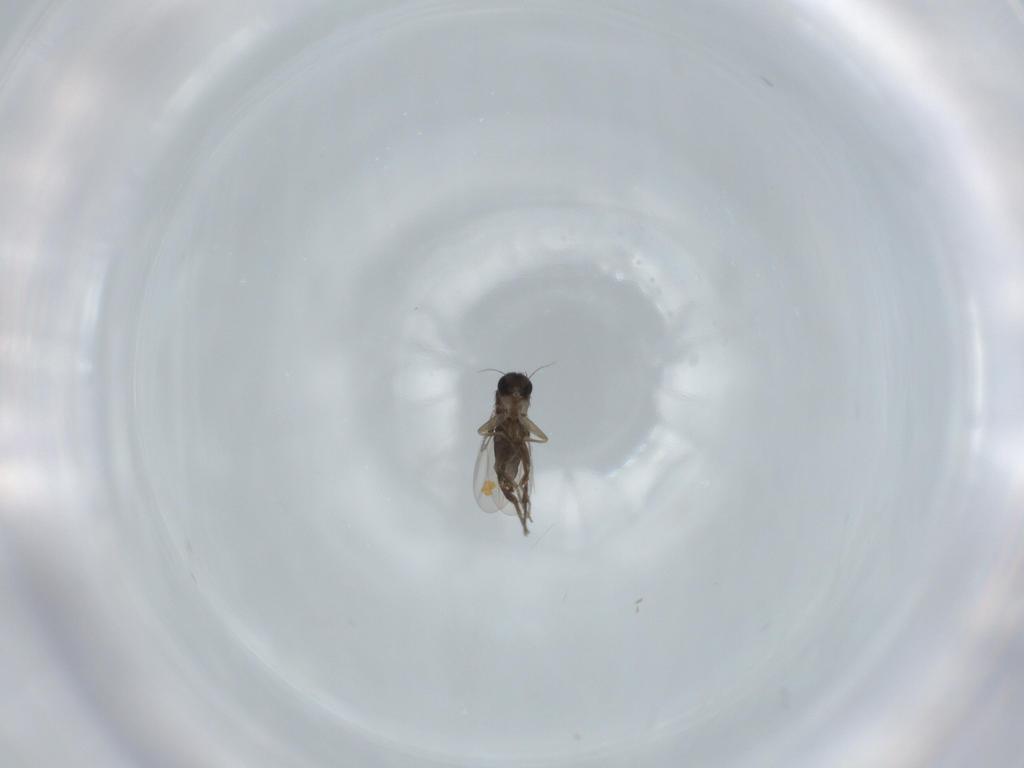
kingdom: Animalia
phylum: Arthropoda
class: Insecta
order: Diptera
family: Phoridae
